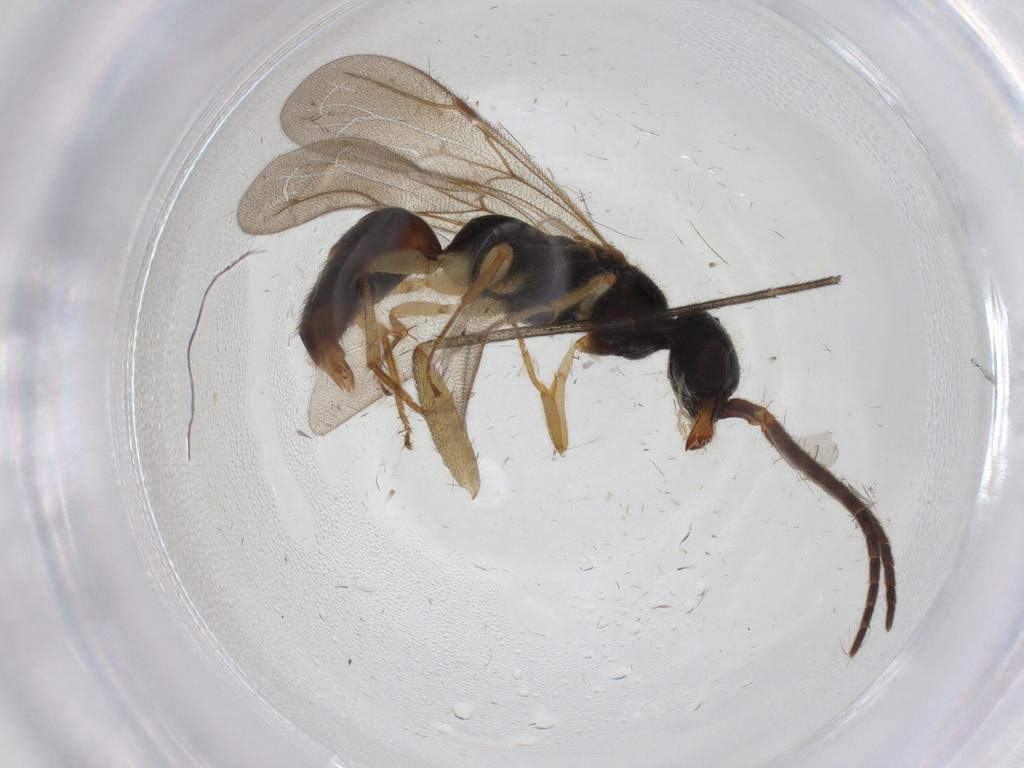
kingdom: Animalia
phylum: Arthropoda
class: Insecta
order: Hymenoptera
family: Bethylidae
